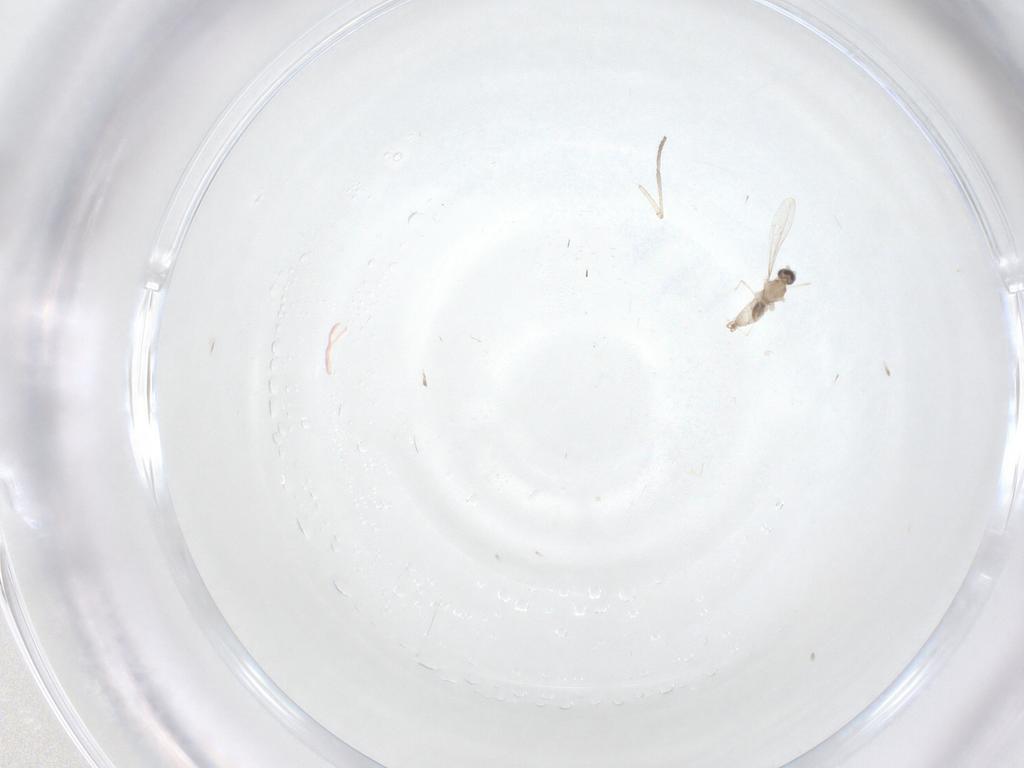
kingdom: Animalia
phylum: Arthropoda
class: Insecta
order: Diptera
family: Cecidomyiidae
